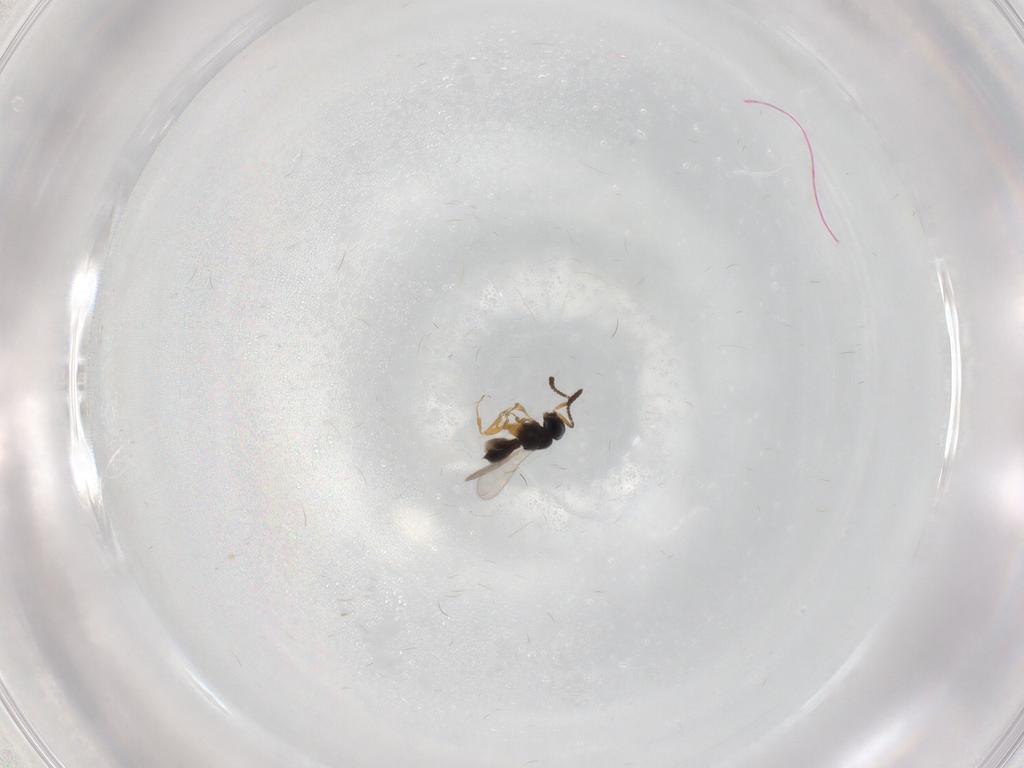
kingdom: Animalia
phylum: Arthropoda
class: Insecta
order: Hymenoptera
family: Scelionidae
